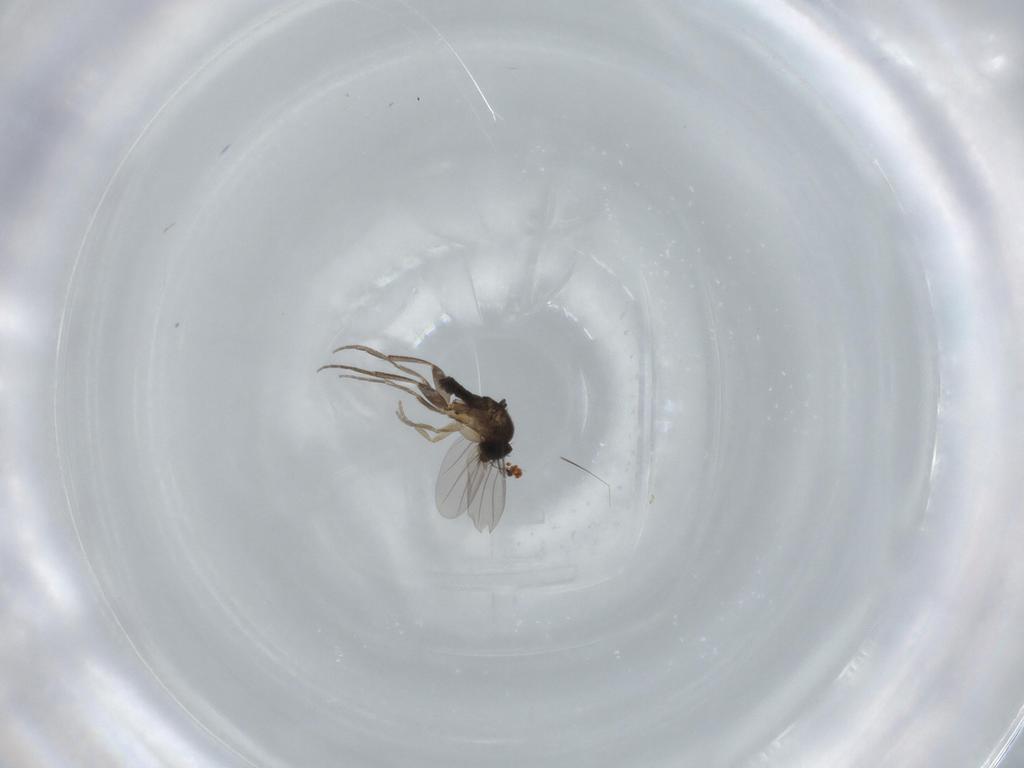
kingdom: Animalia
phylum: Arthropoda
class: Insecta
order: Diptera
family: Phoridae
